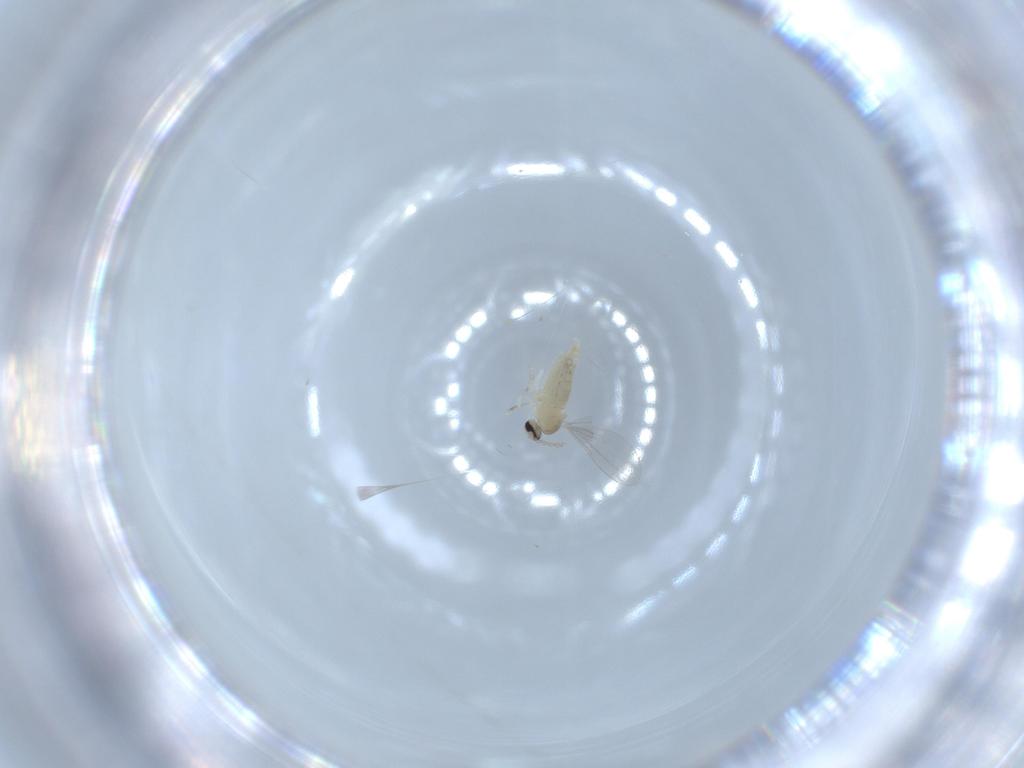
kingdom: Animalia
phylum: Arthropoda
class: Insecta
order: Diptera
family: Cecidomyiidae
